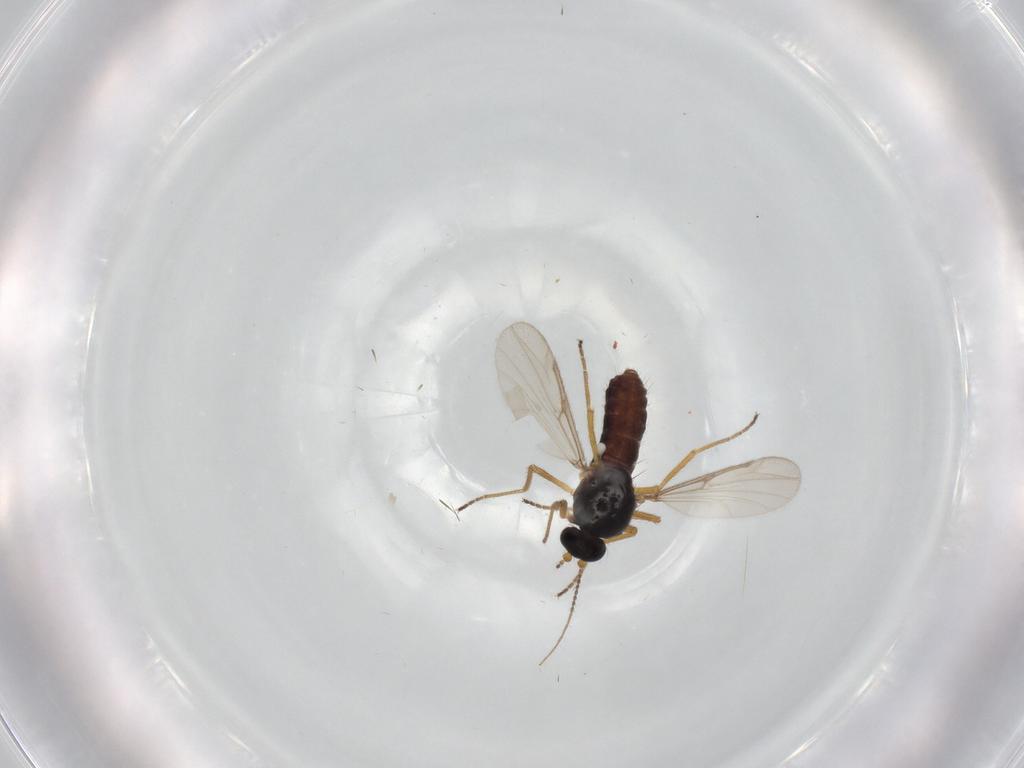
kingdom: Animalia
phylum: Arthropoda
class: Insecta
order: Diptera
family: Ceratopogonidae
